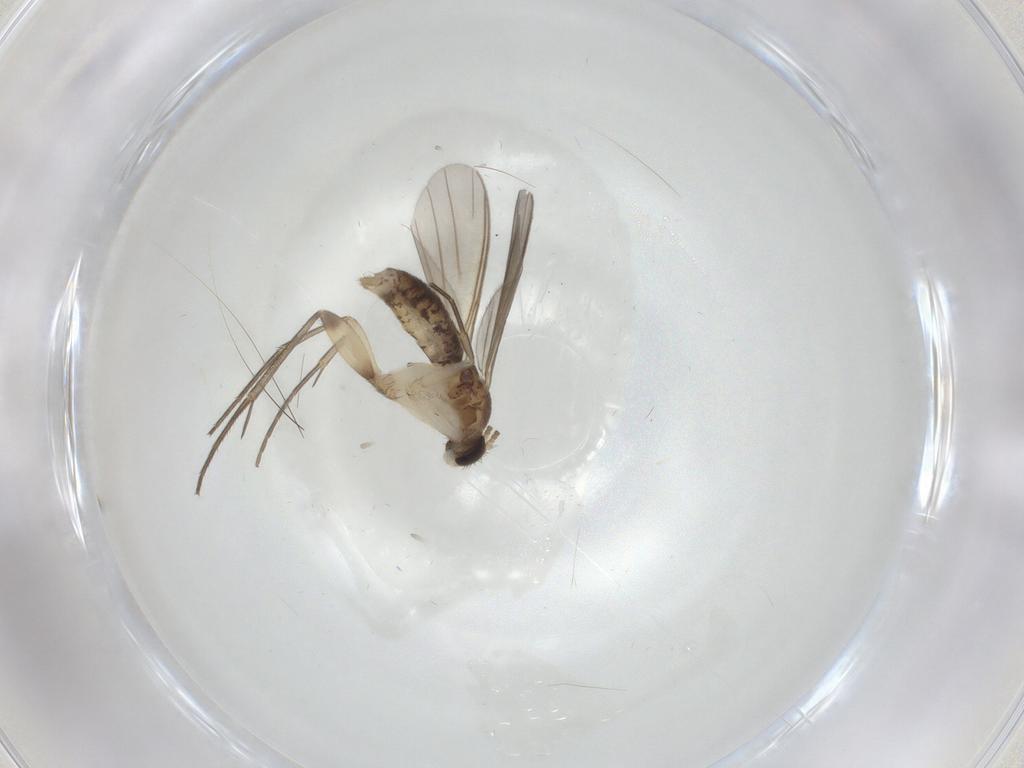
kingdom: Animalia
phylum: Arthropoda
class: Insecta
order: Diptera
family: Mycetophilidae
